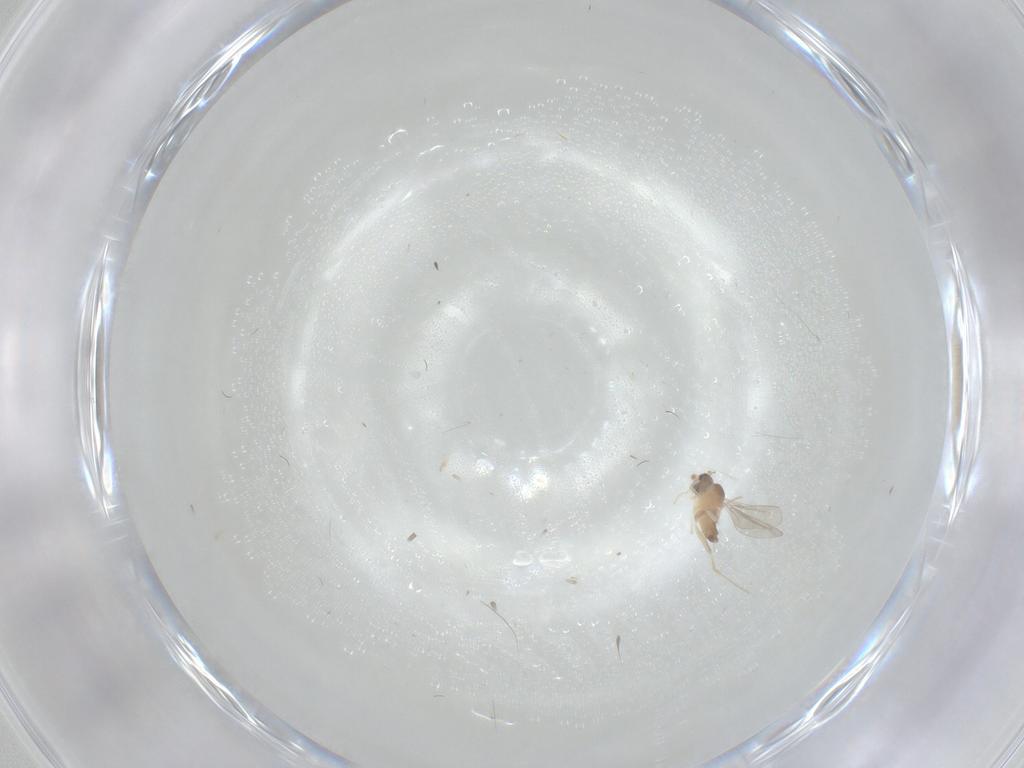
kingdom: Animalia
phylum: Arthropoda
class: Insecta
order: Diptera
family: Cecidomyiidae
